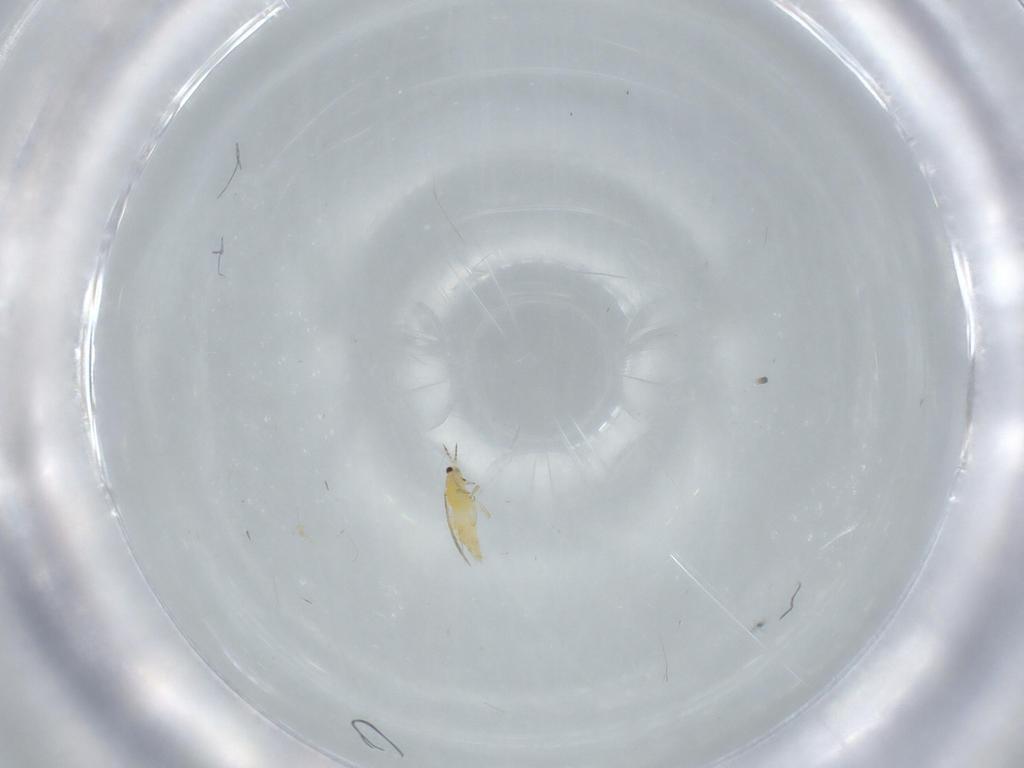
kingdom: Animalia
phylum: Arthropoda
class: Insecta
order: Thysanoptera
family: Thripidae
